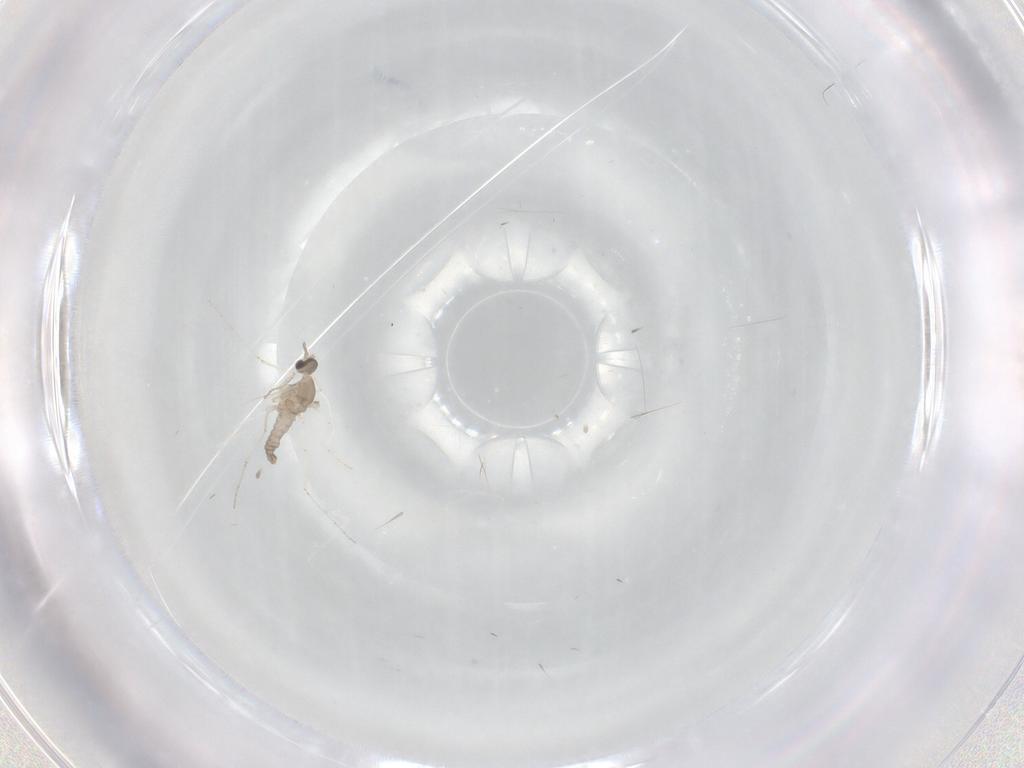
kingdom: Animalia
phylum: Arthropoda
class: Insecta
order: Diptera
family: Cecidomyiidae
